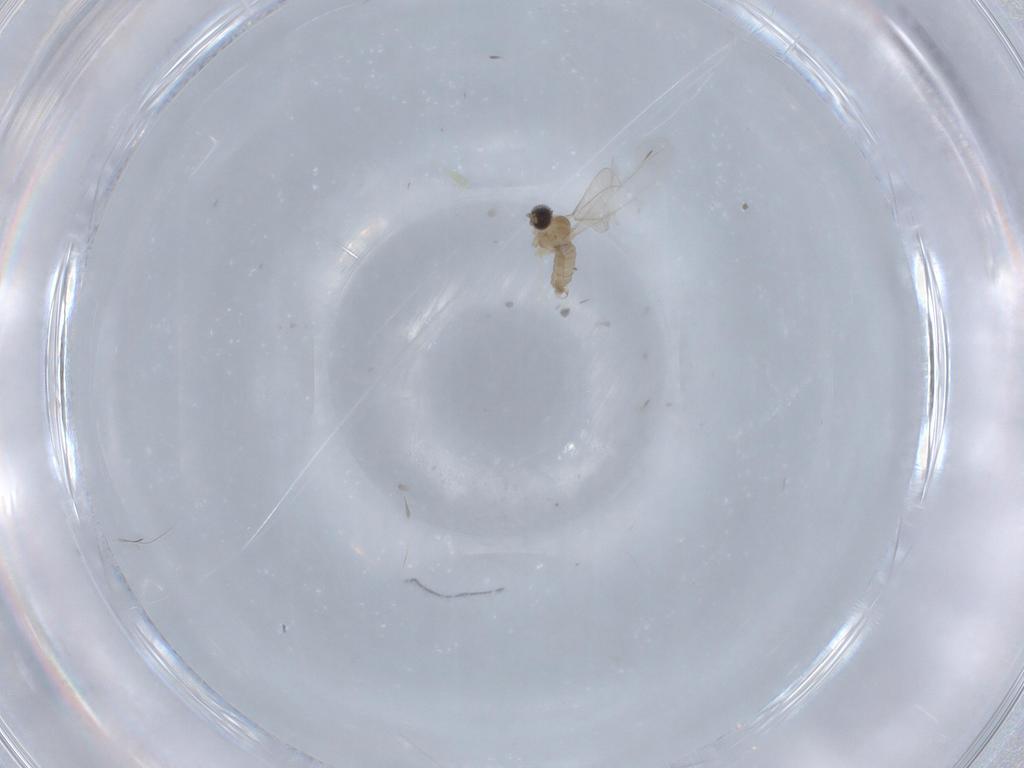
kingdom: Animalia
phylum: Arthropoda
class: Insecta
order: Diptera
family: Cecidomyiidae
